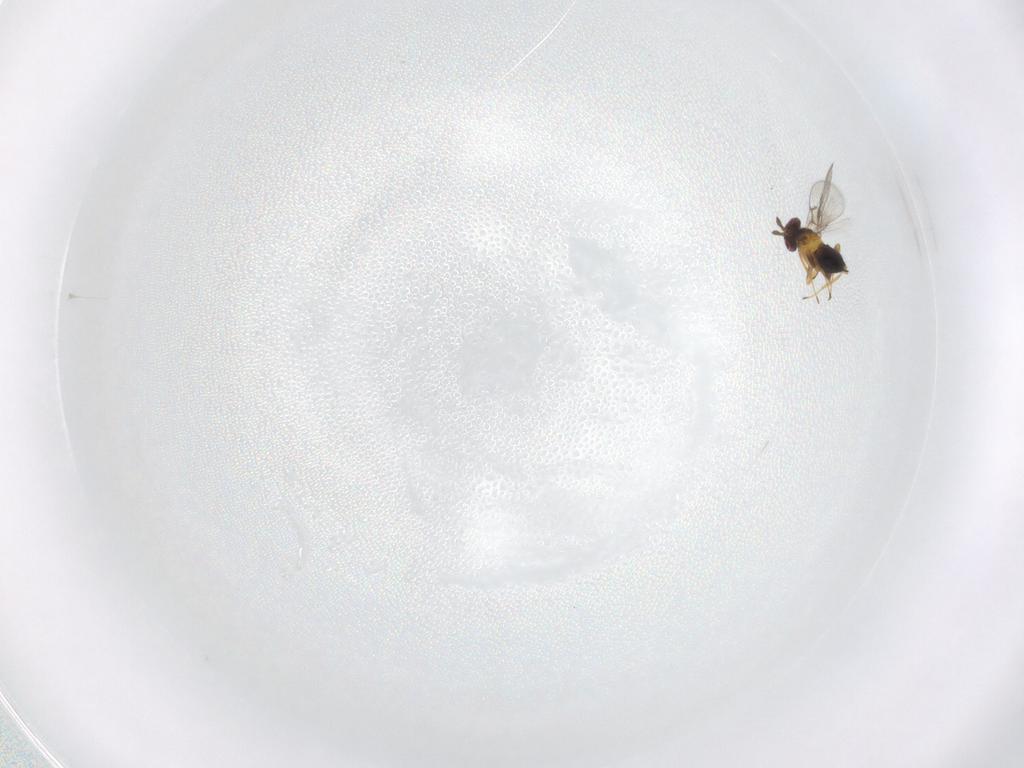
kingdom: Animalia
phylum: Arthropoda
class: Insecta
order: Hymenoptera
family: Trichogrammatidae
